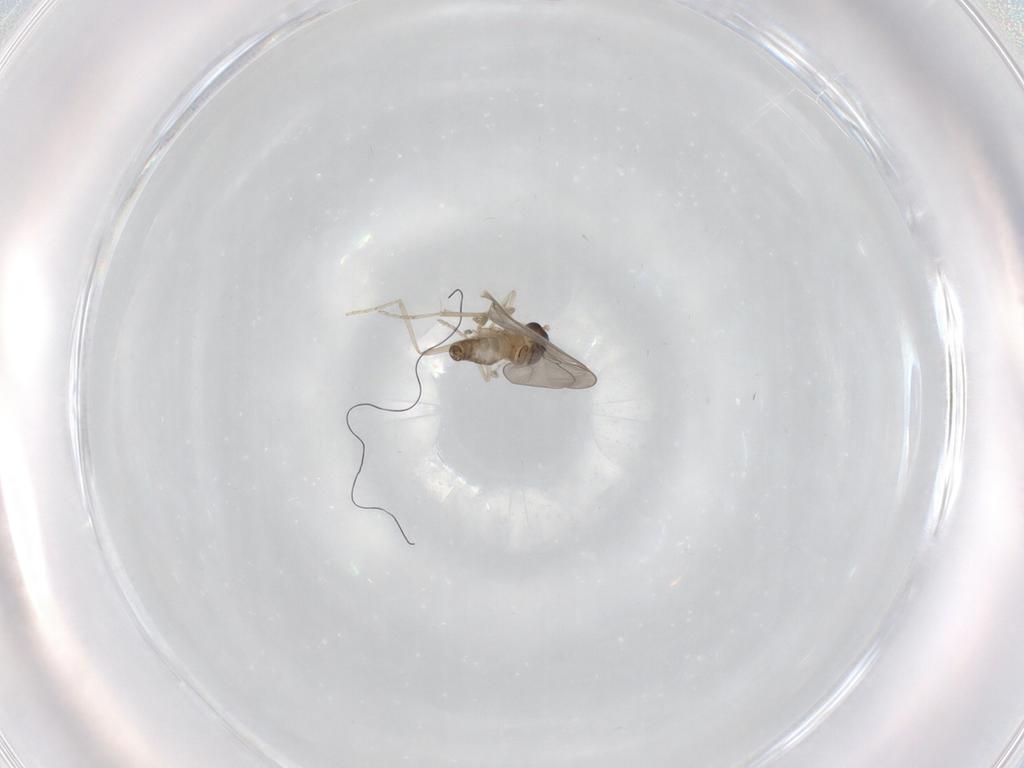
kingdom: Animalia
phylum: Arthropoda
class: Insecta
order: Diptera
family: Cecidomyiidae
